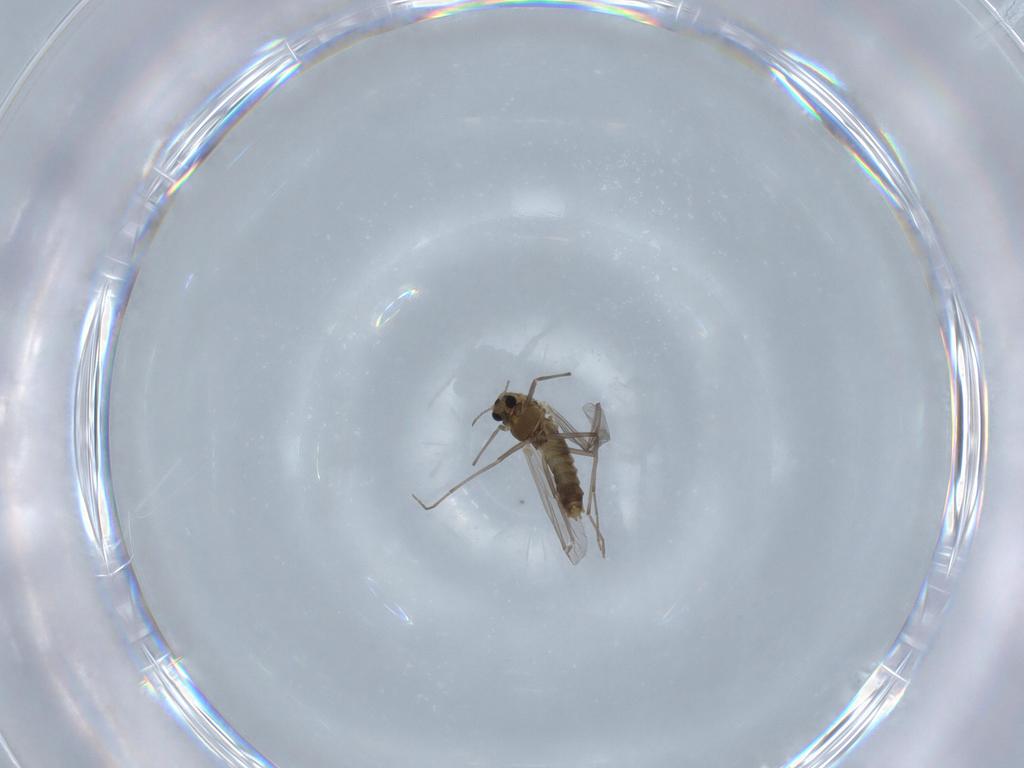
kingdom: Animalia
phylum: Arthropoda
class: Insecta
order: Diptera
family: Chironomidae
